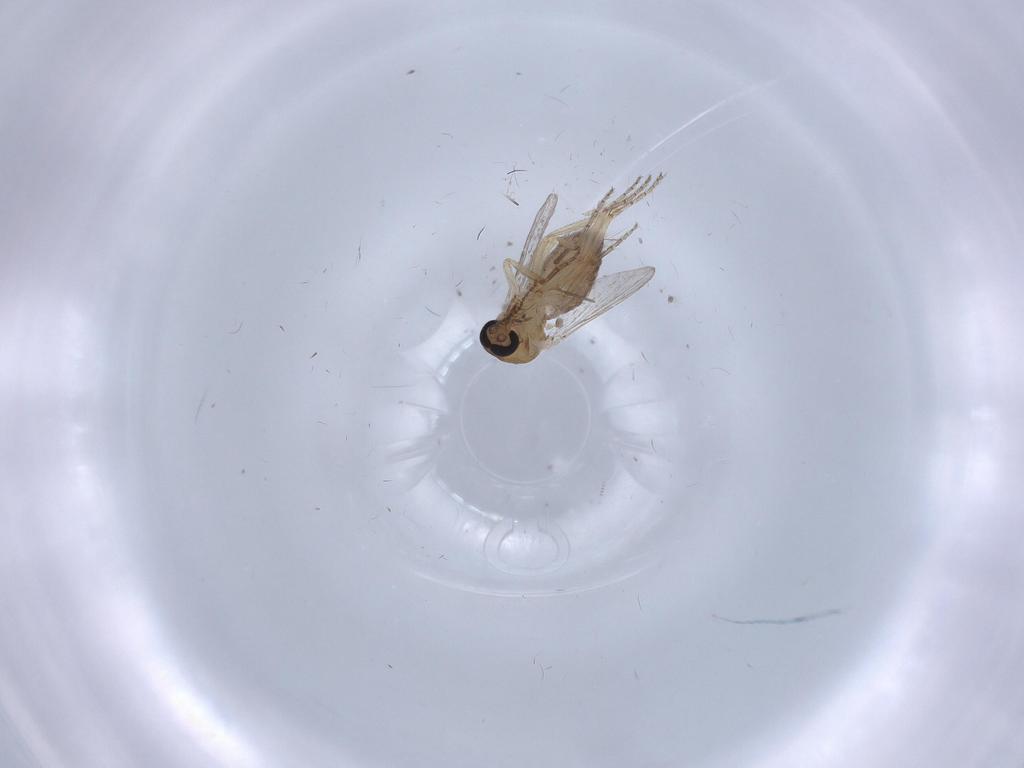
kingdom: Animalia
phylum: Arthropoda
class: Insecta
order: Diptera
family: Ceratopogonidae
